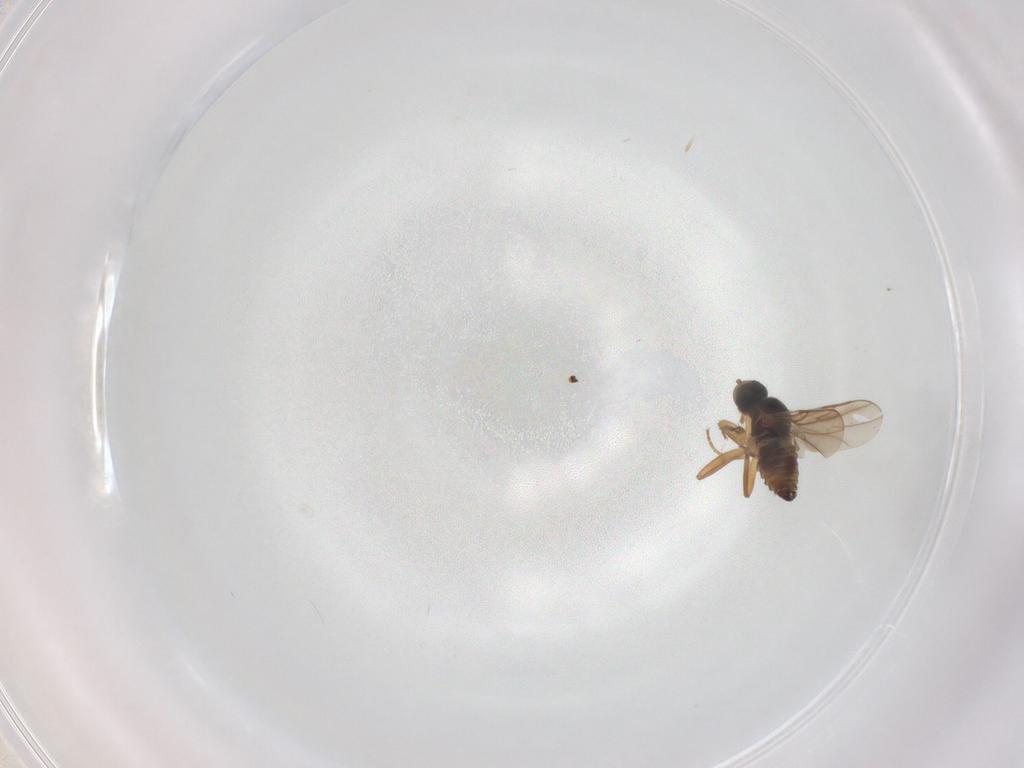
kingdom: Animalia
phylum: Arthropoda
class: Insecta
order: Diptera
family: Hybotidae
